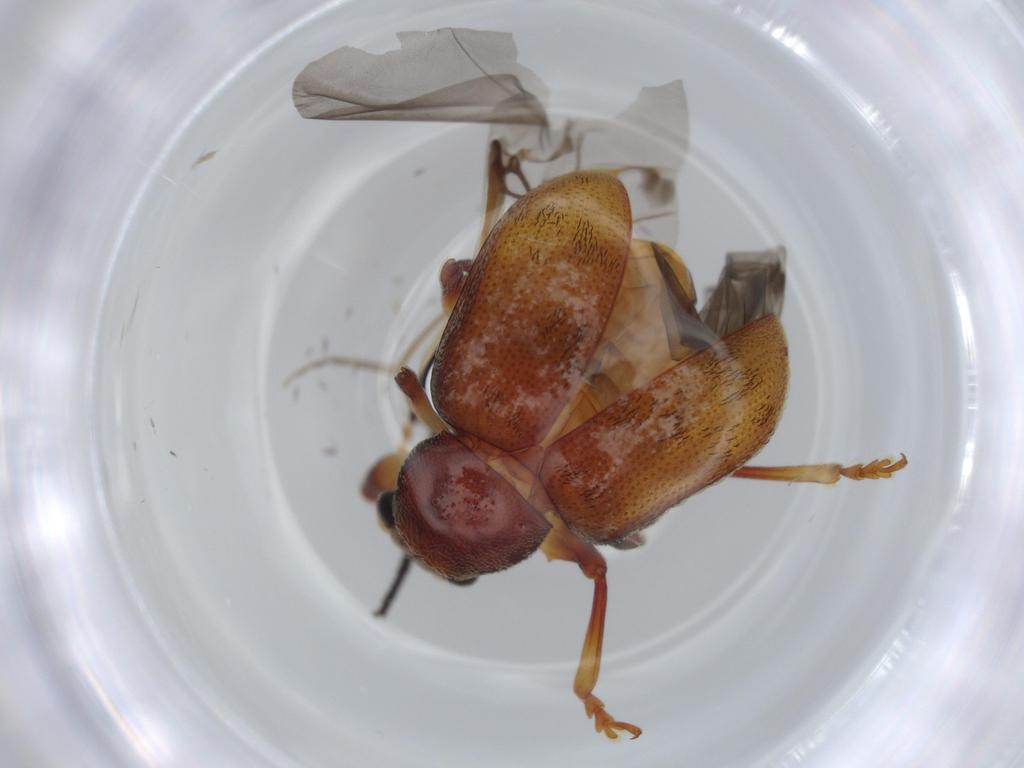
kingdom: Animalia
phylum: Arthropoda
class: Insecta
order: Coleoptera
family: Chrysomelidae
